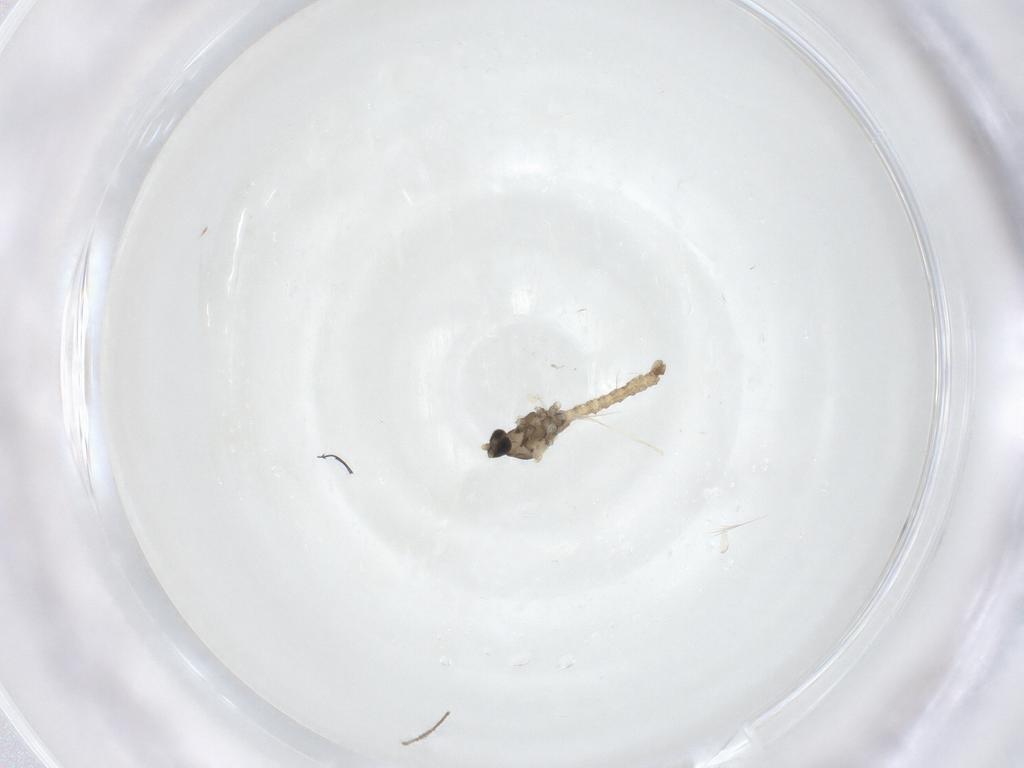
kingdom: Animalia
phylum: Arthropoda
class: Insecta
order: Diptera
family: Cecidomyiidae
